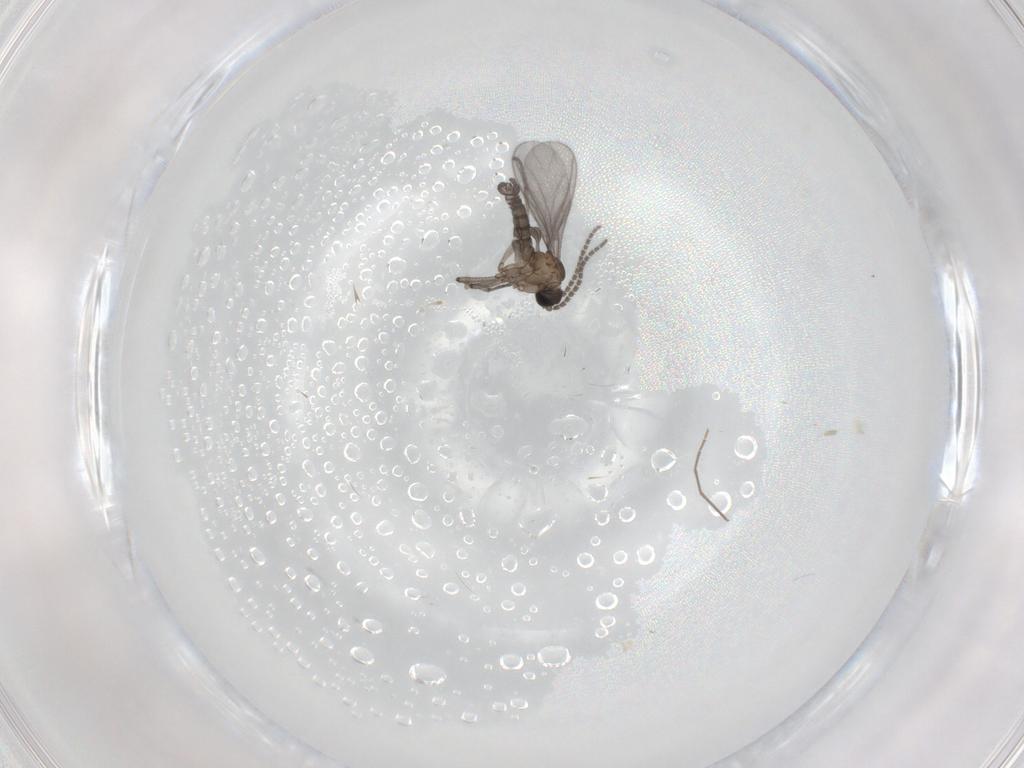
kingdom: Animalia
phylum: Arthropoda
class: Insecta
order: Diptera
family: Sciaridae
